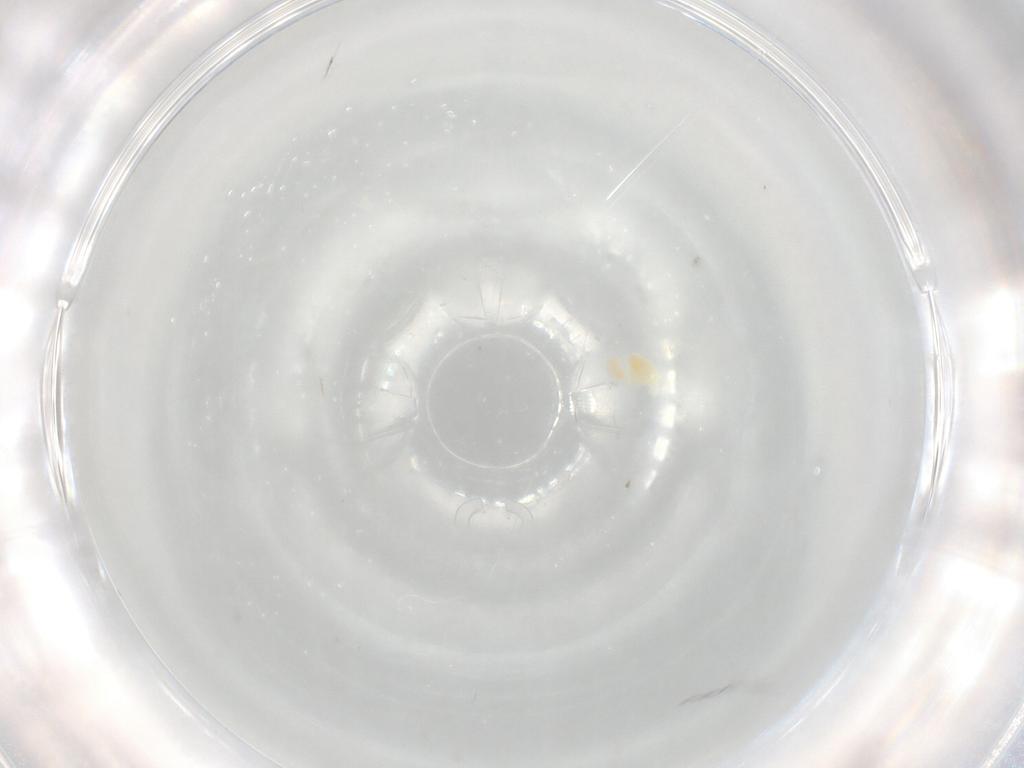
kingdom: Animalia
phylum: Arthropoda
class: Arachnida
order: Trombidiformes
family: Eupodidae
